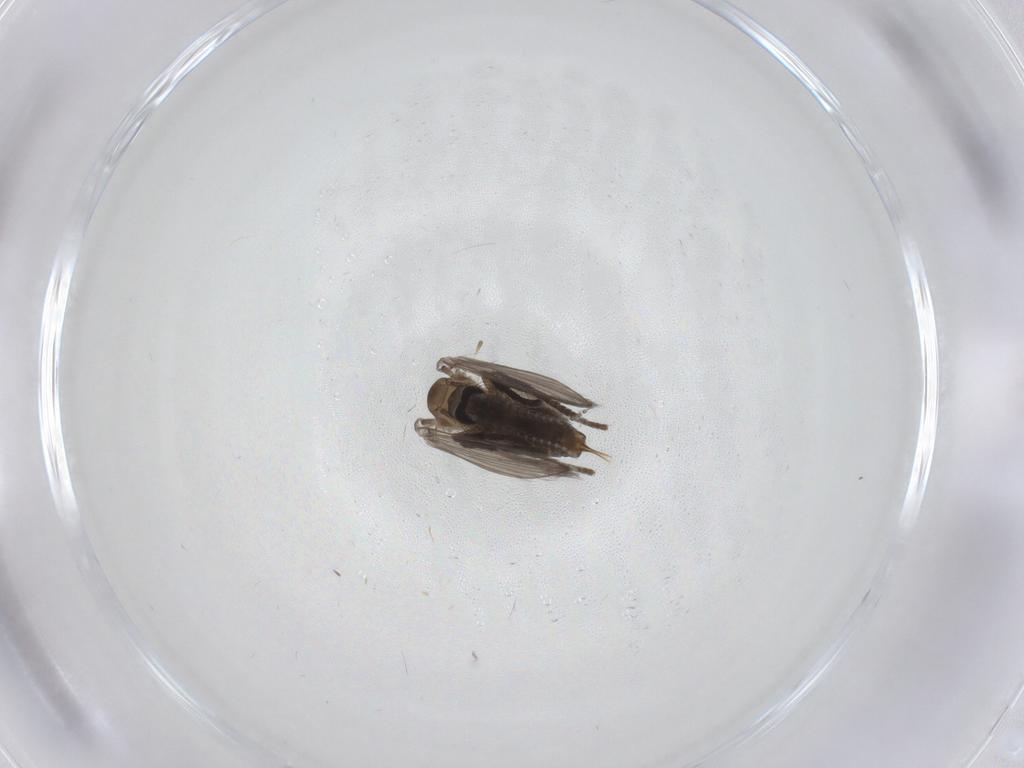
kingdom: Animalia
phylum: Arthropoda
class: Insecta
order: Diptera
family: Psychodidae
